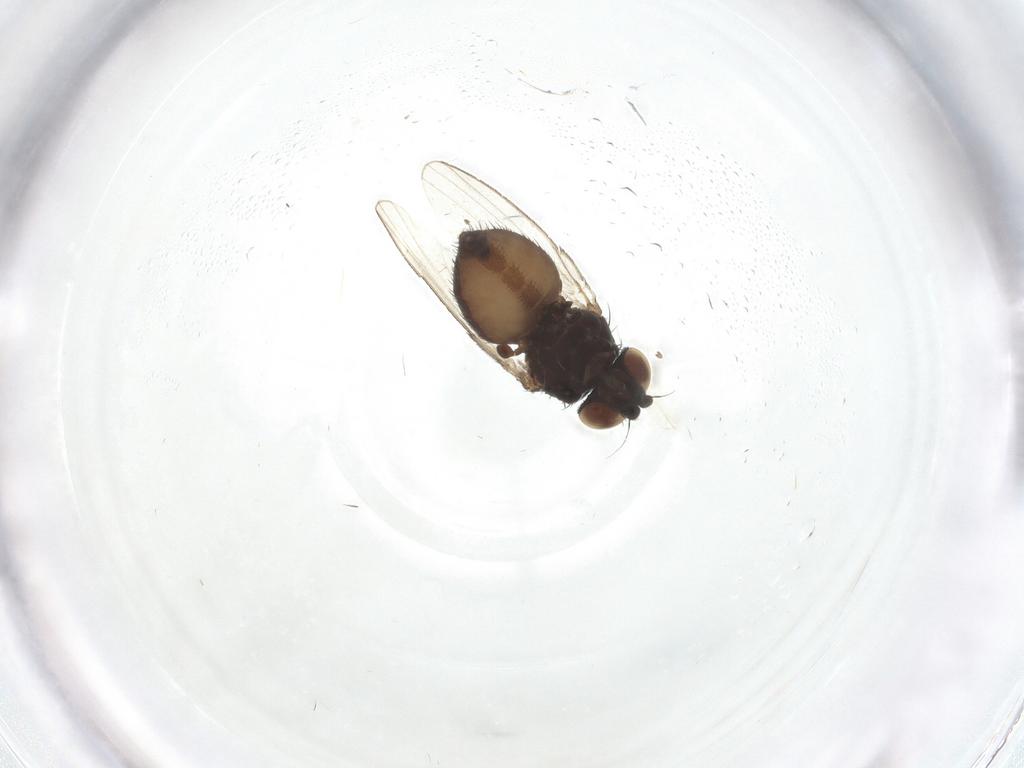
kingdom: Animalia
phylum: Arthropoda
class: Insecta
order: Diptera
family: Milichiidae
